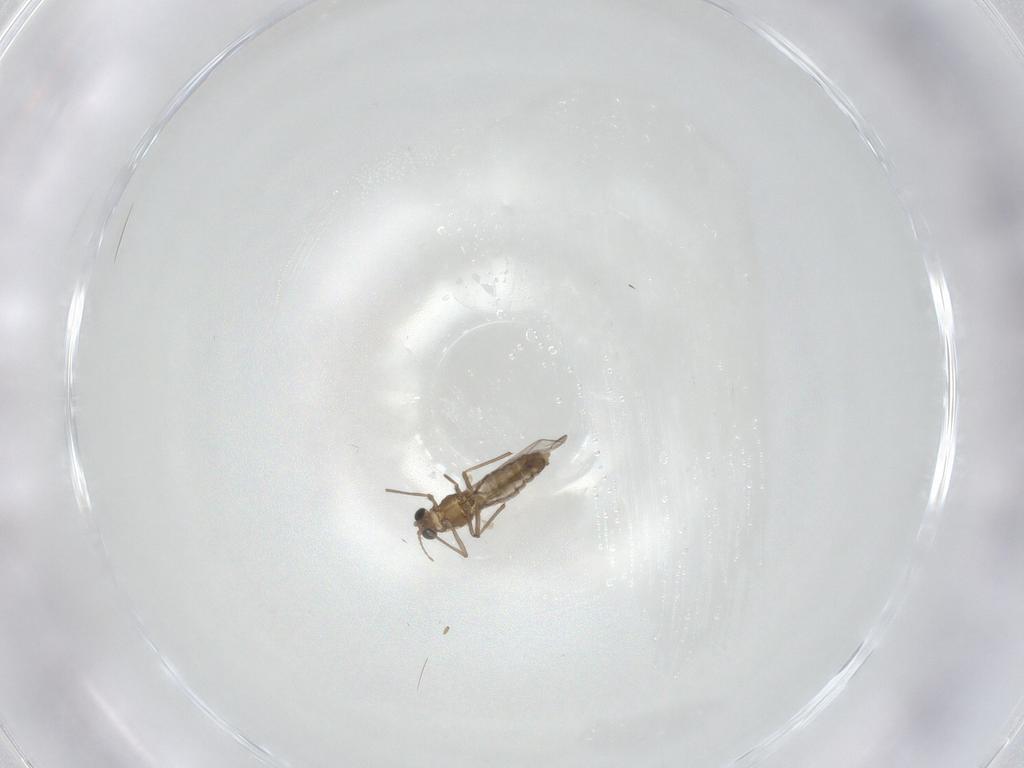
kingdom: Animalia
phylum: Arthropoda
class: Insecta
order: Diptera
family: Chironomidae
